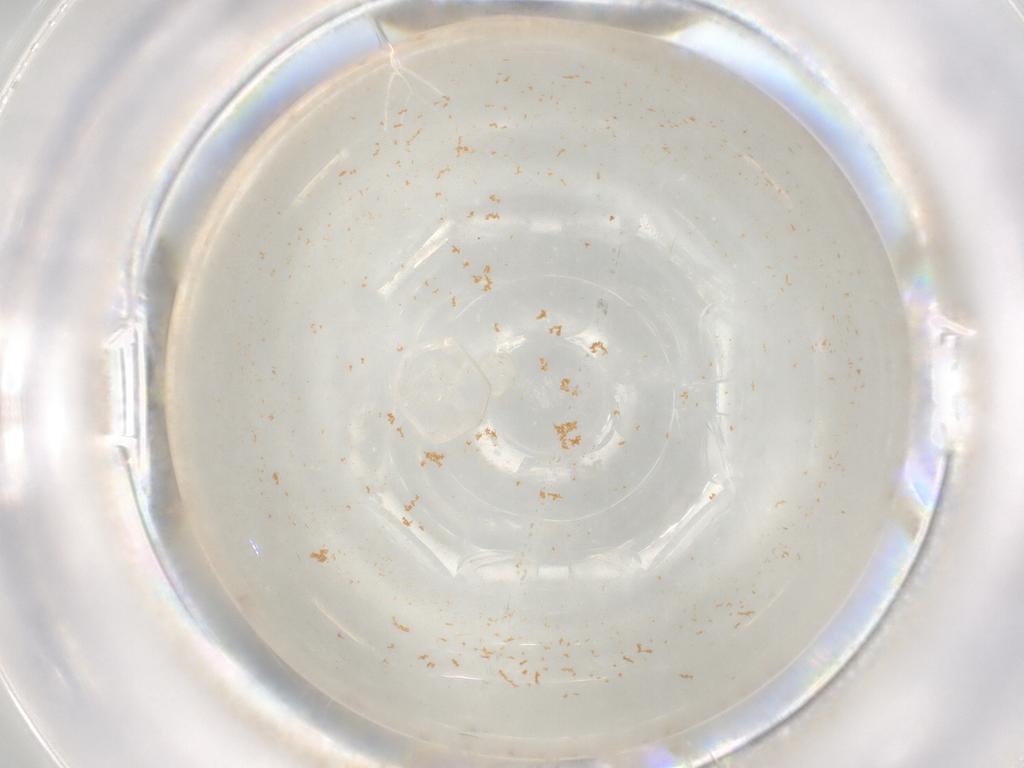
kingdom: Animalia
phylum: Arthropoda
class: Insecta
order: Diptera
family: Cecidomyiidae
